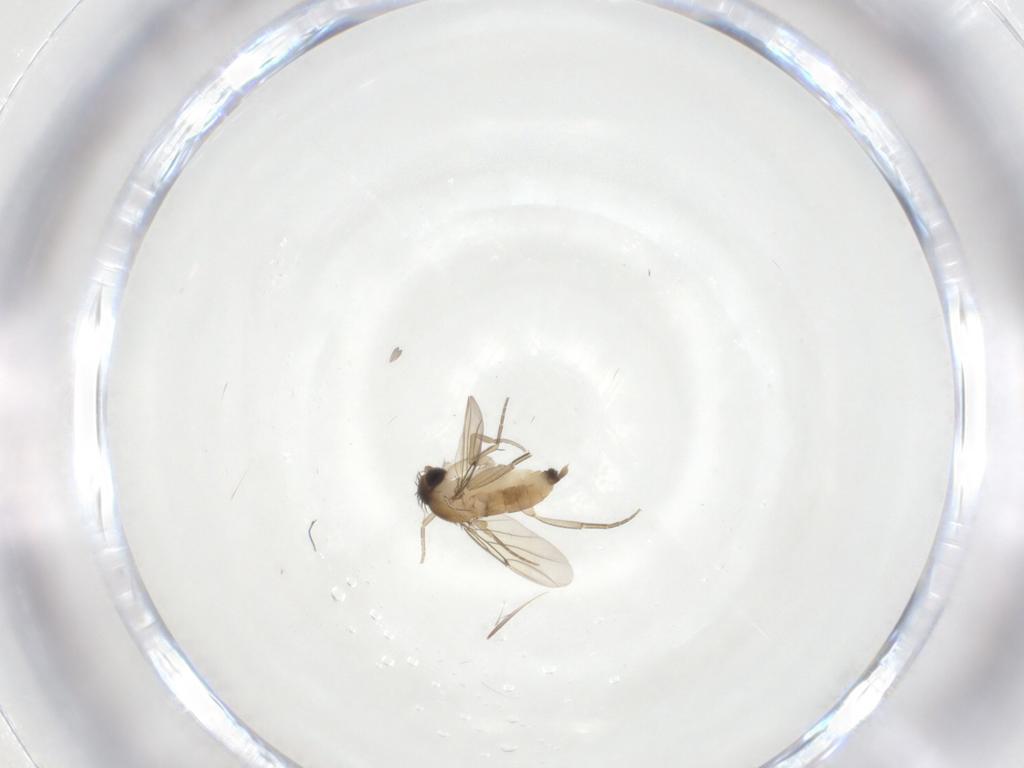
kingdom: Animalia
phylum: Arthropoda
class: Insecta
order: Diptera
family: Phoridae
